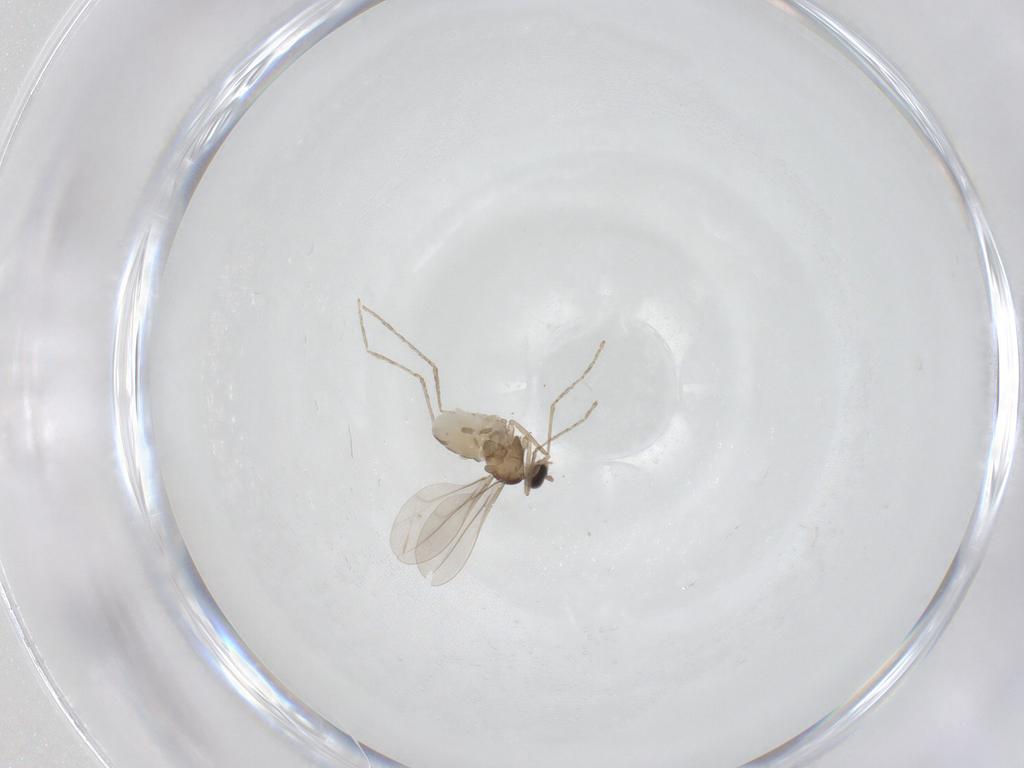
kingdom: Animalia
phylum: Arthropoda
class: Insecta
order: Diptera
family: Cecidomyiidae
